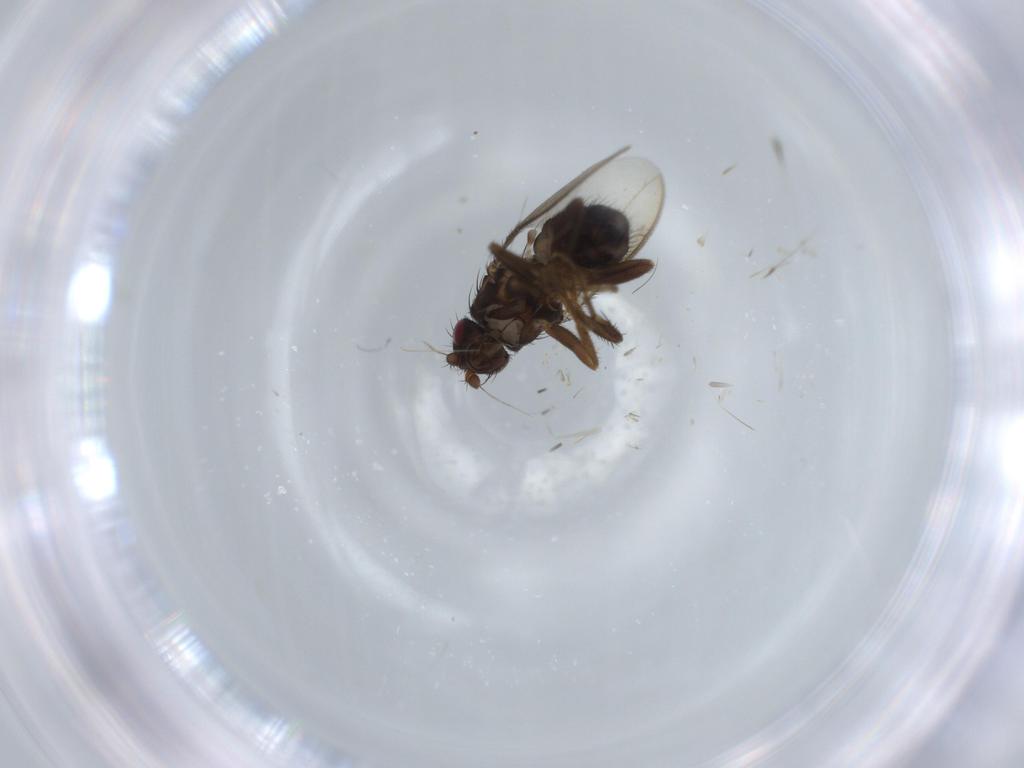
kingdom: Animalia
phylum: Arthropoda
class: Insecta
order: Diptera
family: Sphaeroceridae
